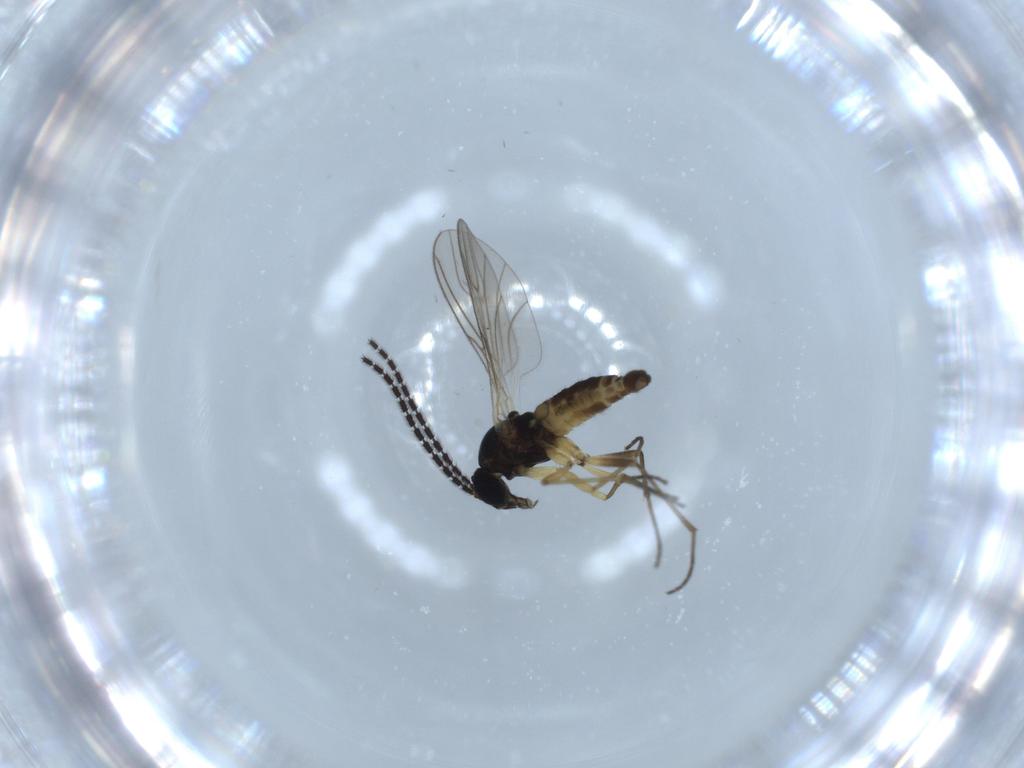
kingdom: Animalia
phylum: Arthropoda
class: Insecta
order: Diptera
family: Sciaridae
